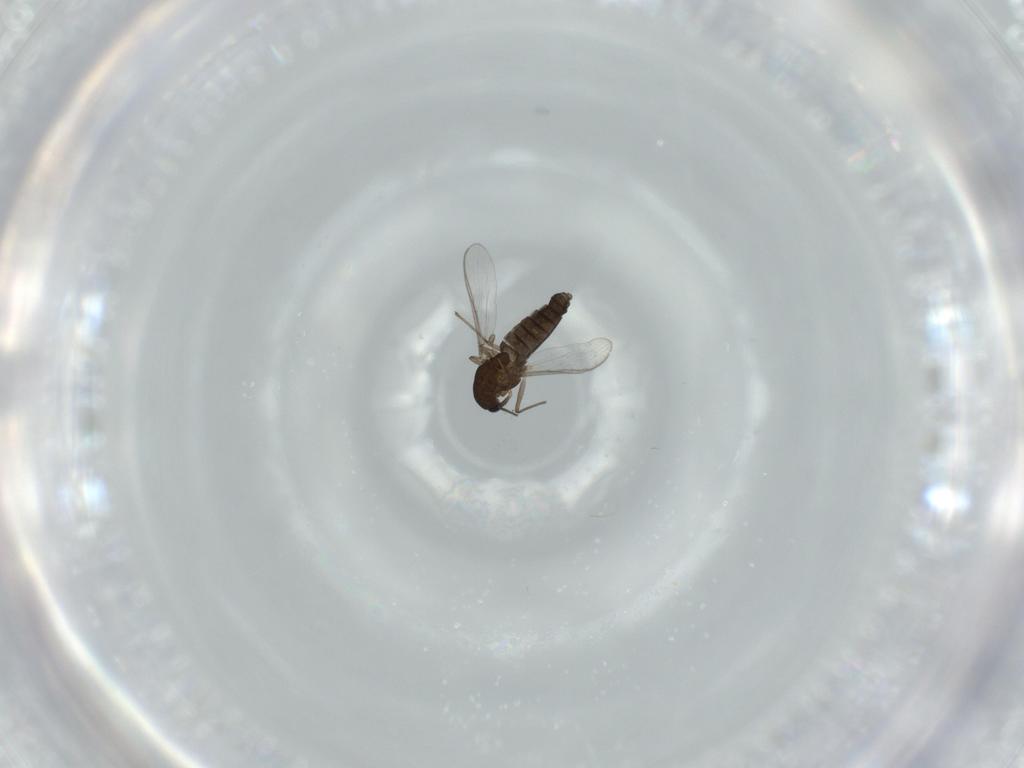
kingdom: Animalia
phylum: Arthropoda
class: Insecta
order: Diptera
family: Chironomidae
